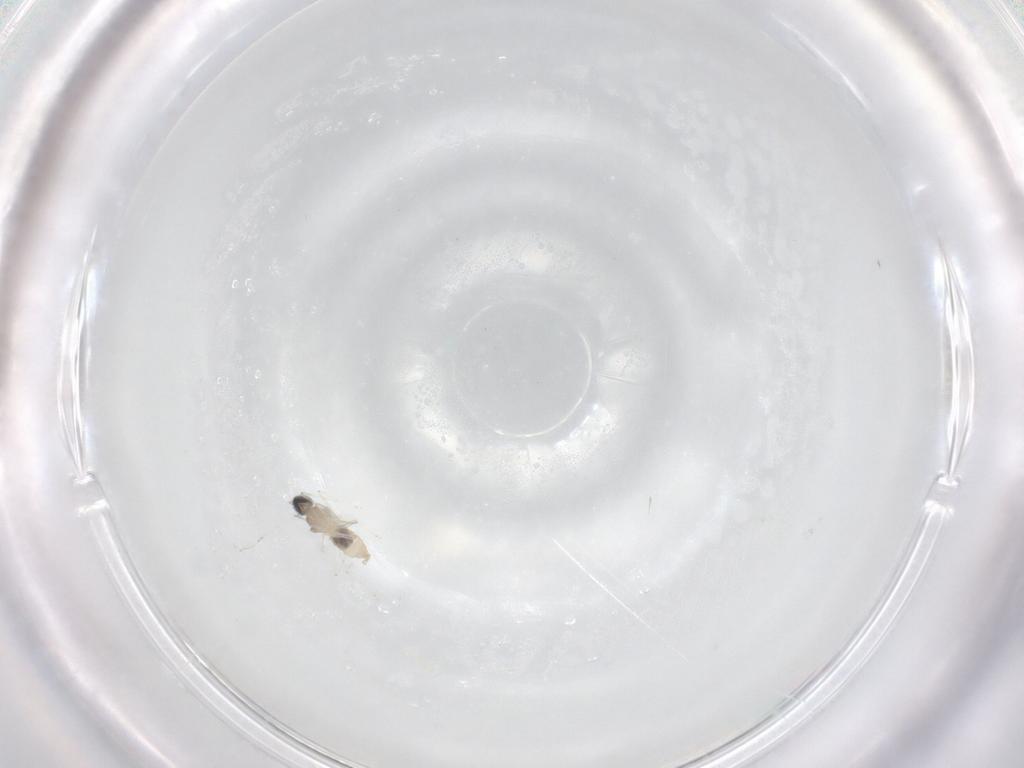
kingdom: Animalia
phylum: Arthropoda
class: Insecta
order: Diptera
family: Cecidomyiidae
